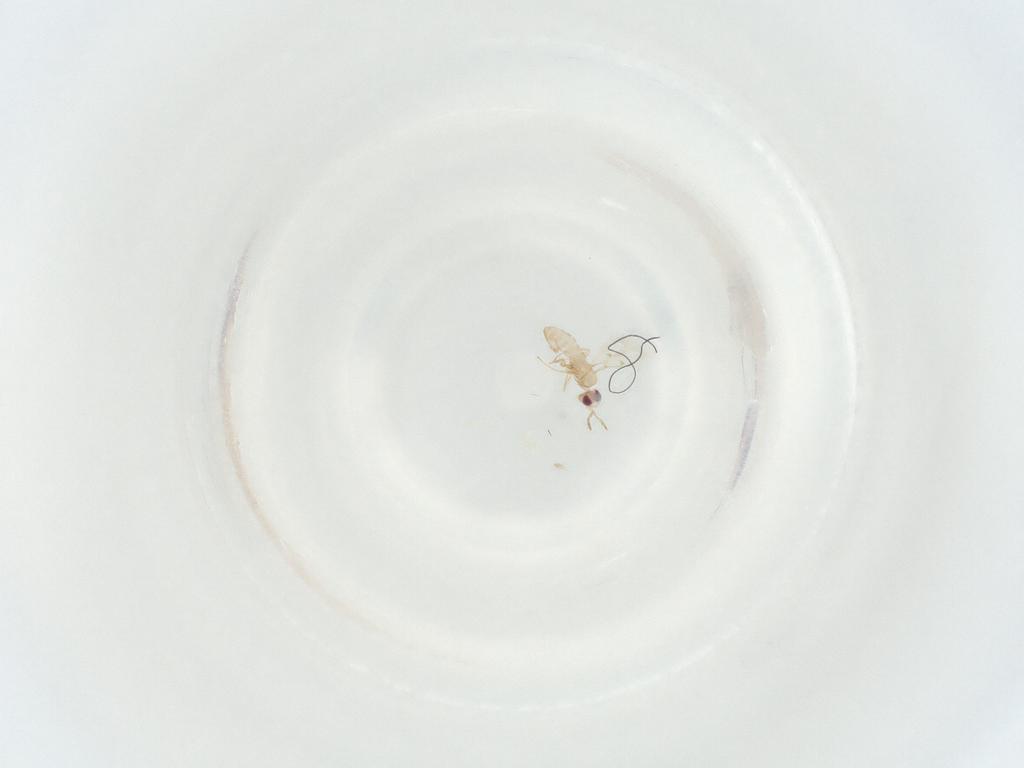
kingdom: Animalia
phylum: Arthropoda
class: Insecta
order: Hymenoptera
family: Trichogrammatidae
